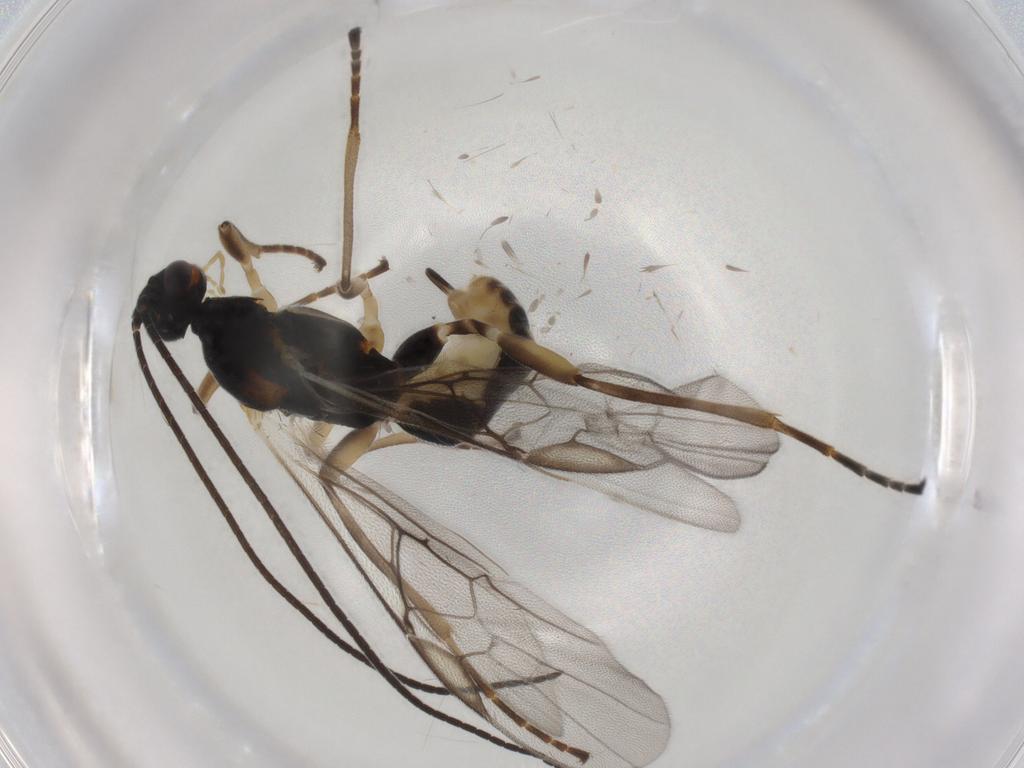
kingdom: Animalia
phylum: Arthropoda
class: Insecta
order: Hymenoptera
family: Braconidae
